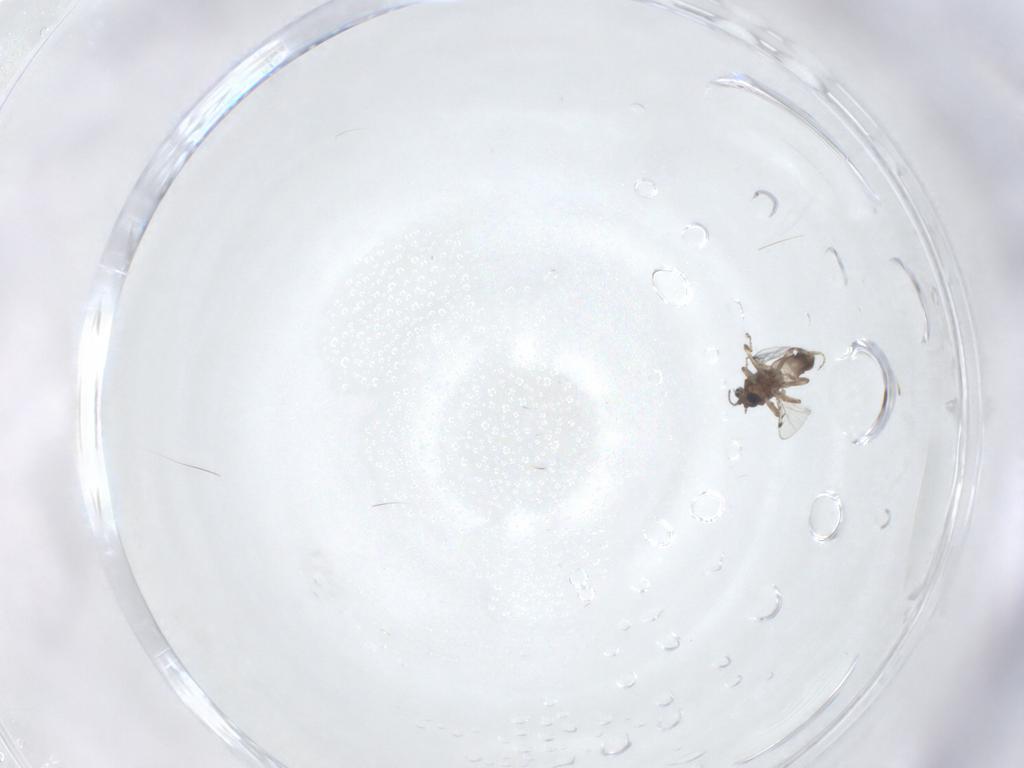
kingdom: Animalia
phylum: Arthropoda
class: Insecta
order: Diptera
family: Ceratopogonidae
